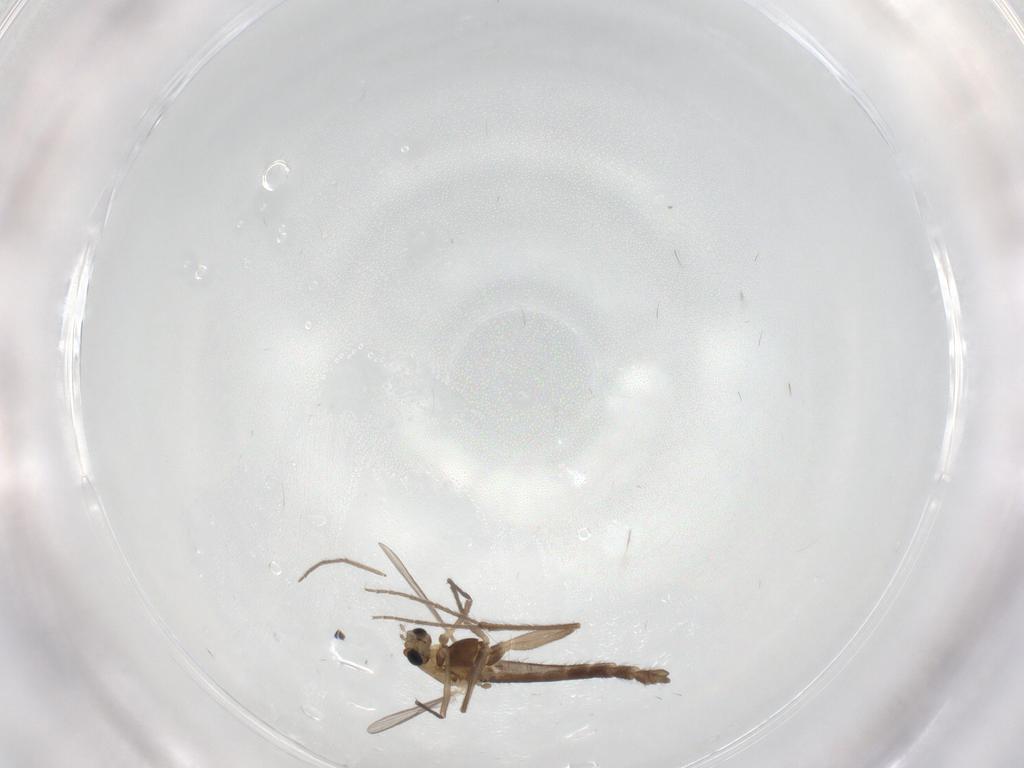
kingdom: Animalia
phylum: Arthropoda
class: Insecta
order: Diptera
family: Chironomidae
